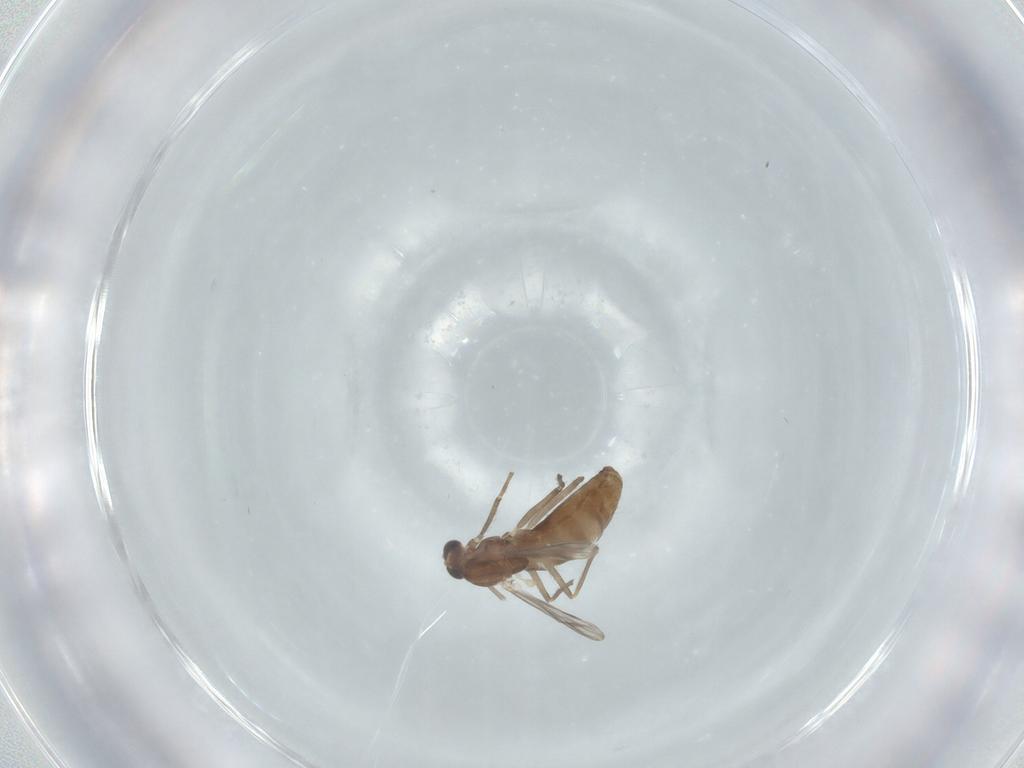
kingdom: Animalia
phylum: Arthropoda
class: Insecta
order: Diptera
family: Chironomidae
